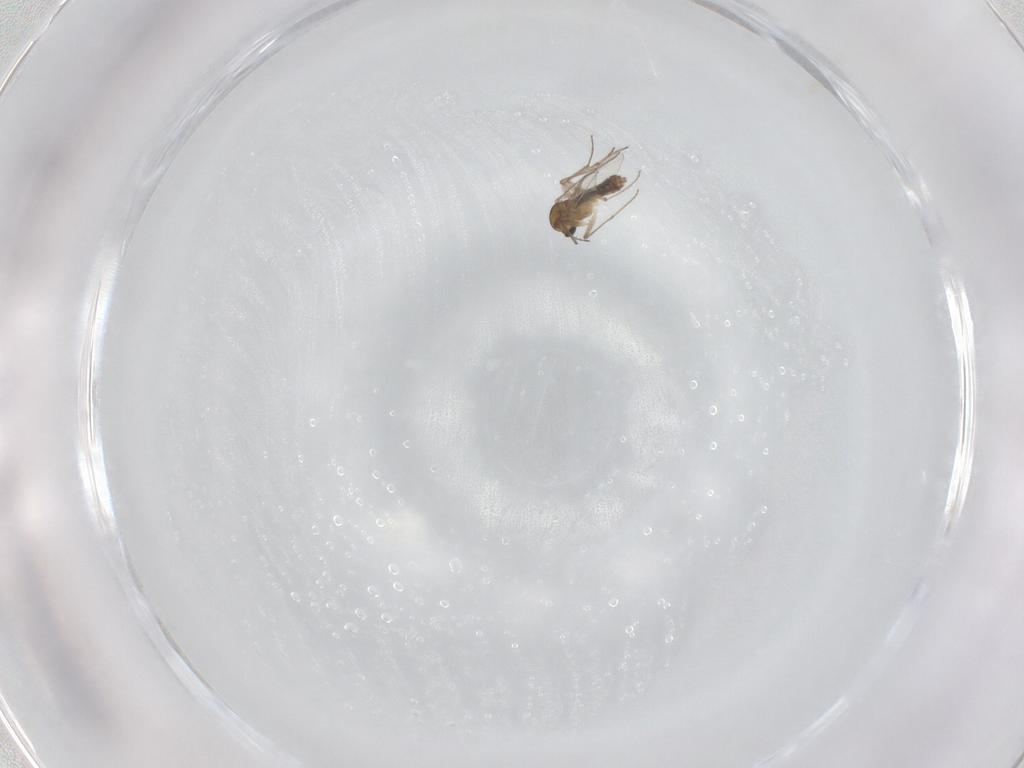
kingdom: Animalia
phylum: Arthropoda
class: Insecta
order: Diptera
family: Chironomidae
